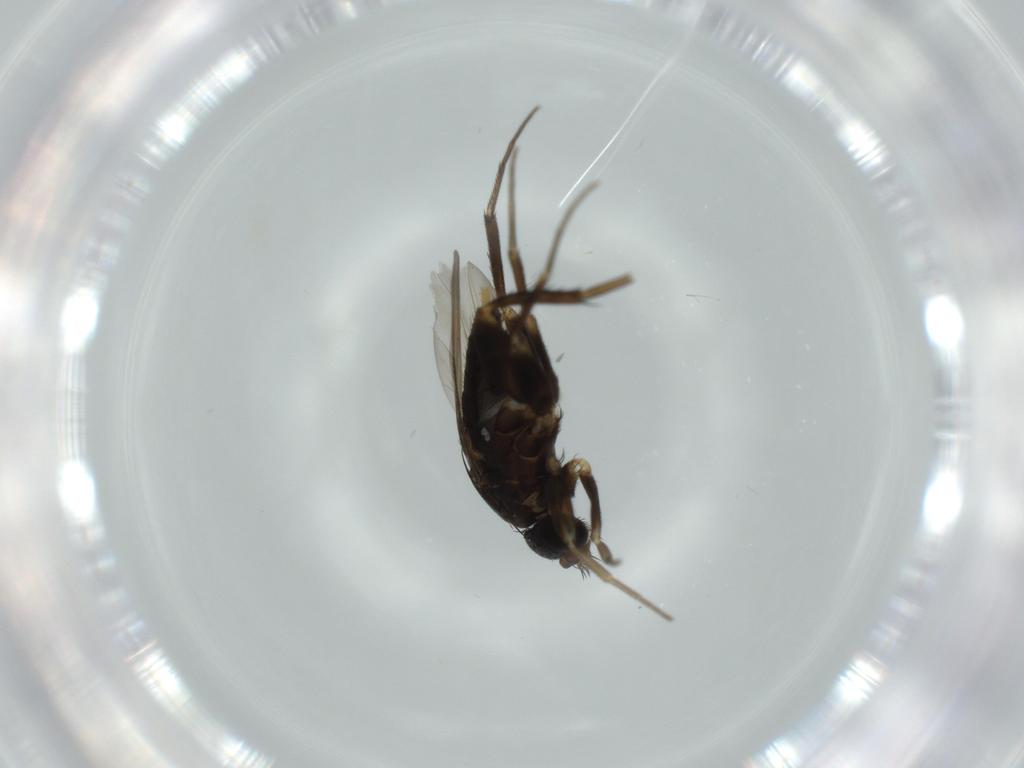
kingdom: Animalia
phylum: Arthropoda
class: Insecta
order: Diptera
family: Phoridae
